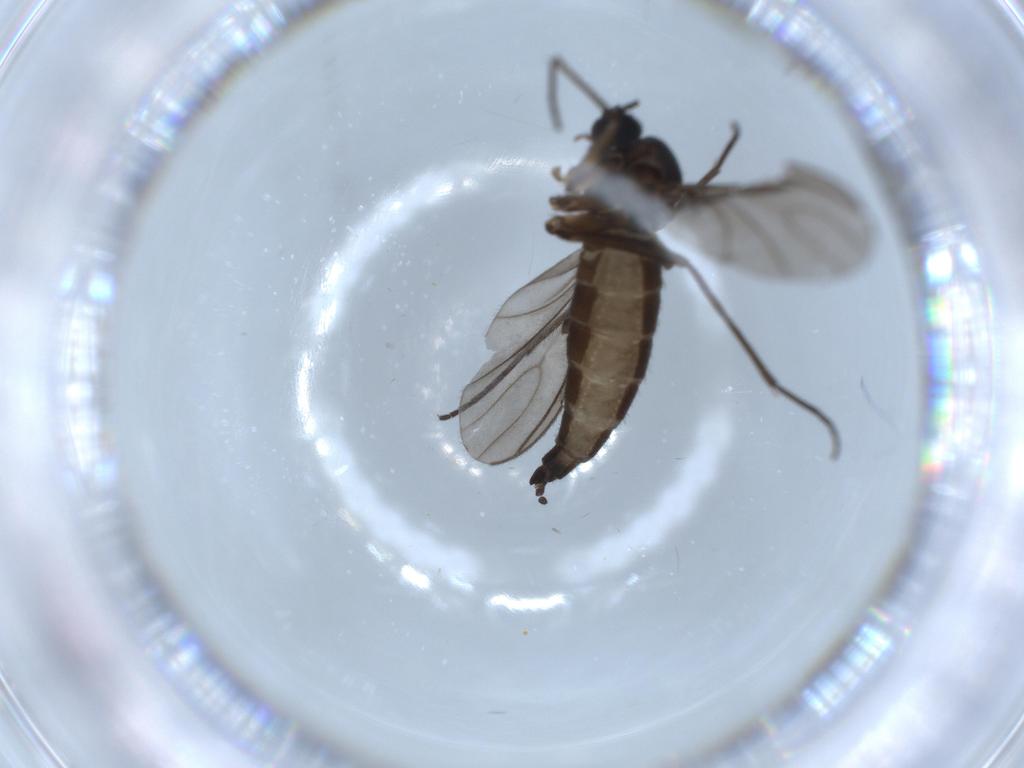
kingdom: Animalia
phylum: Arthropoda
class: Insecta
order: Diptera
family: Sciaridae
